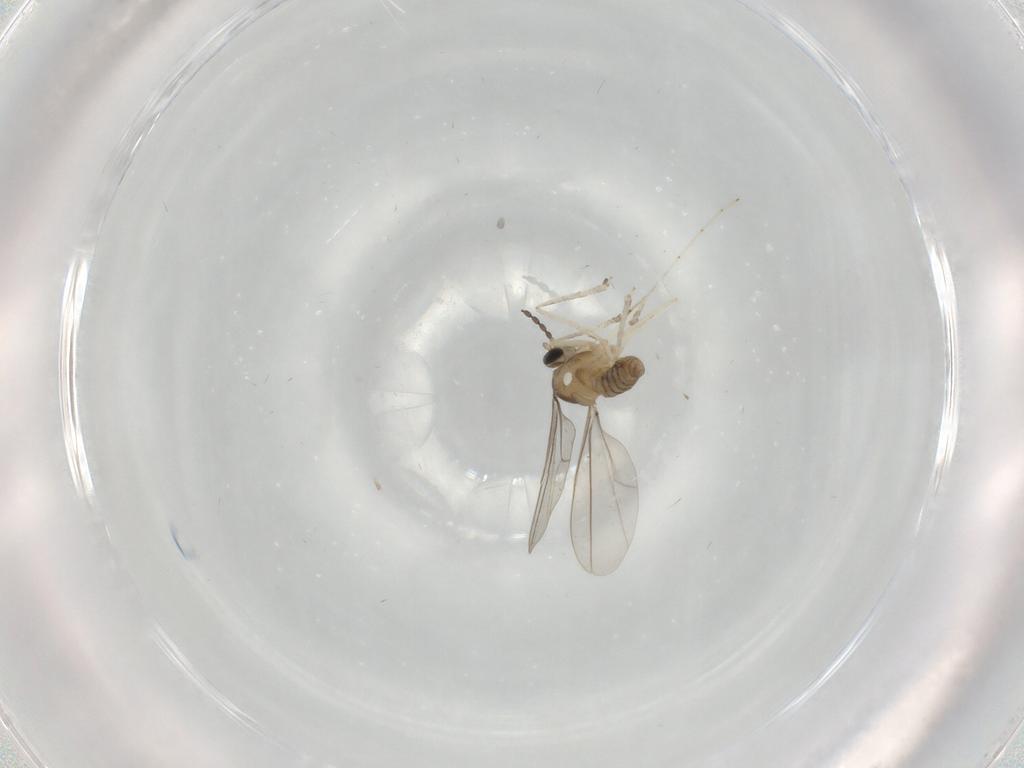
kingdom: Animalia
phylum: Arthropoda
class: Insecta
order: Diptera
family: Cecidomyiidae
